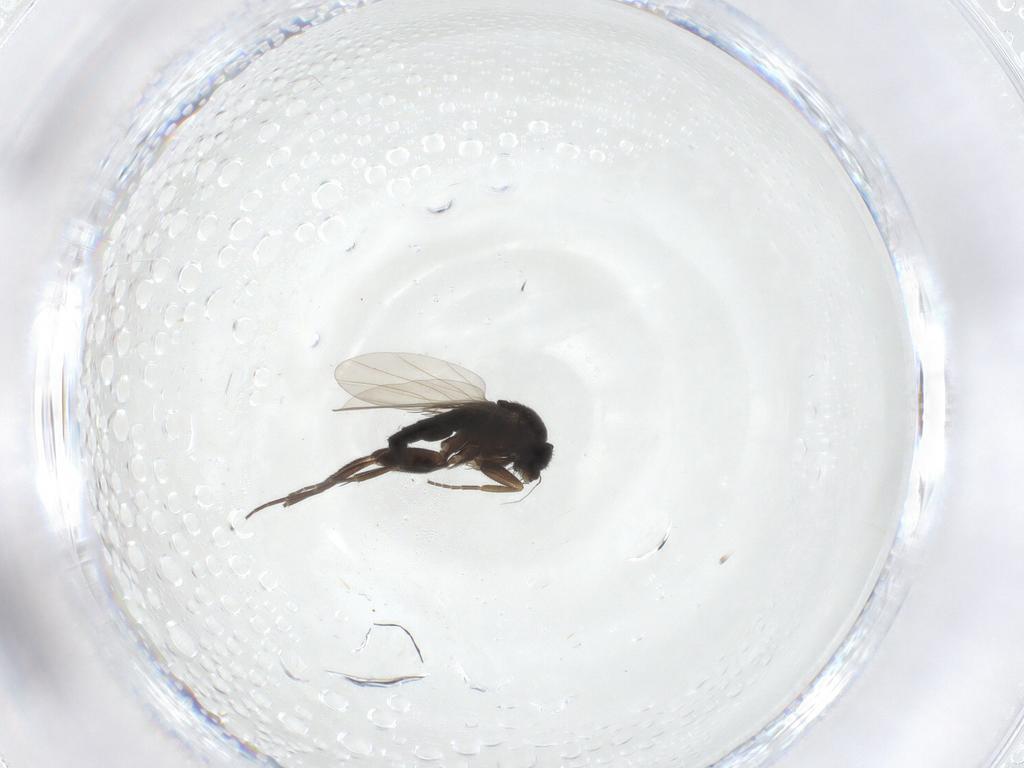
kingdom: Animalia
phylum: Arthropoda
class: Insecta
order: Diptera
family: Phoridae
